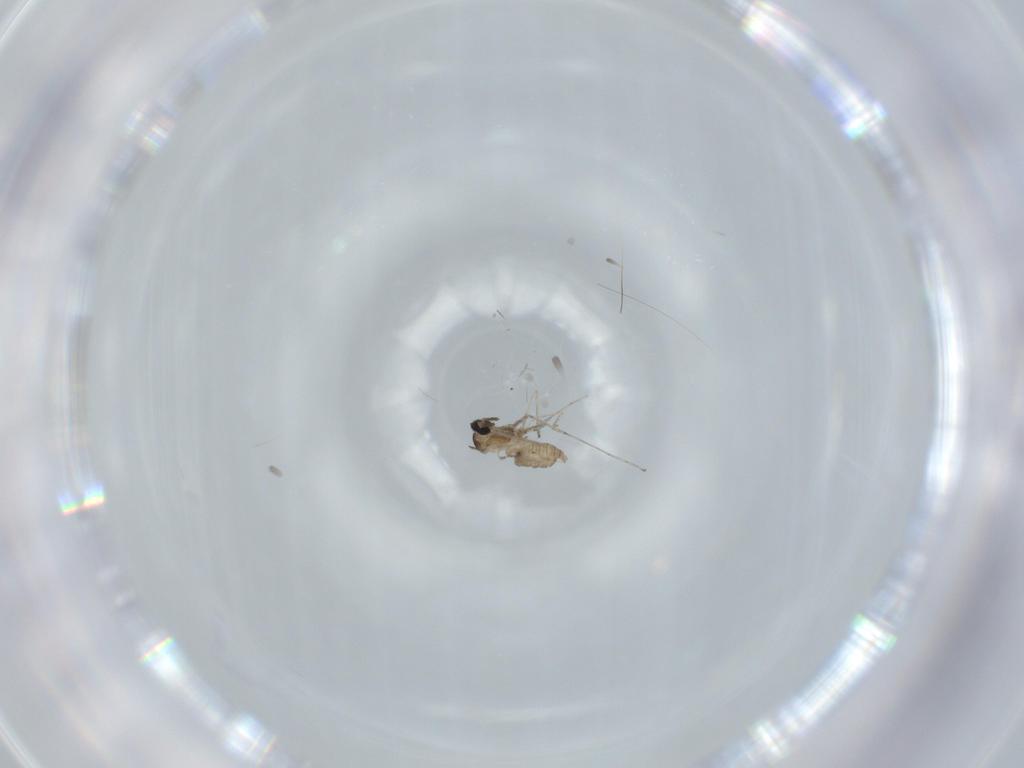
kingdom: Animalia
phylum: Arthropoda
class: Insecta
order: Diptera
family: Cecidomyiidae
